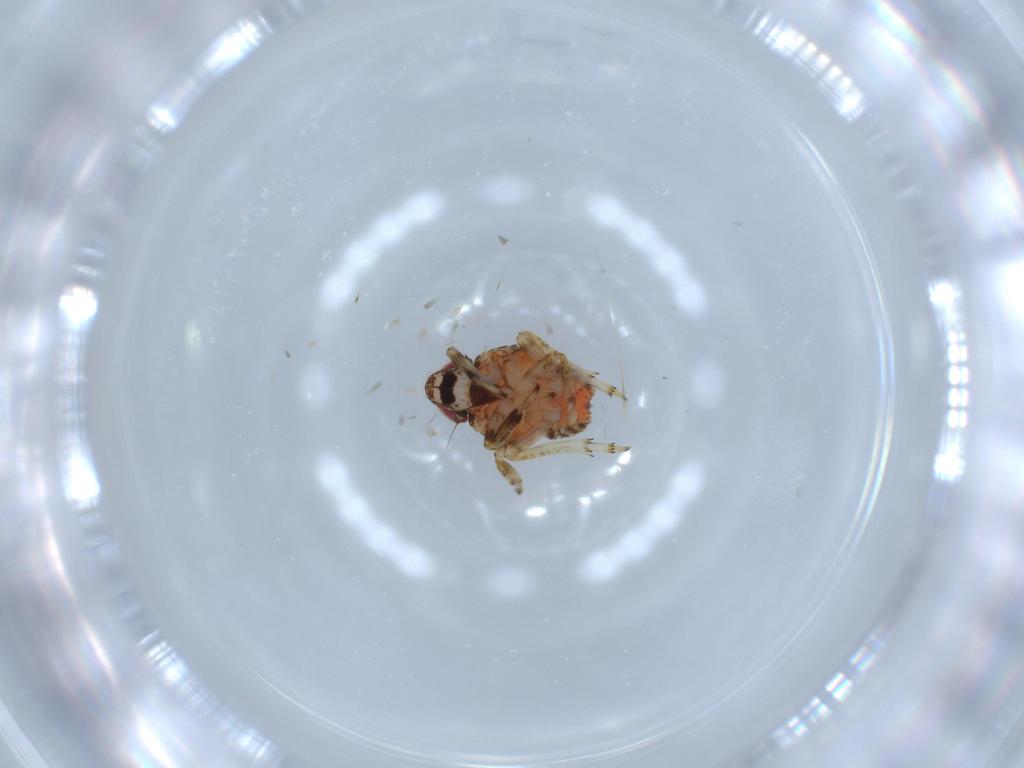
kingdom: Animalia
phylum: Arthropoda
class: Insecta
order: Hemiptera
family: Issidae
